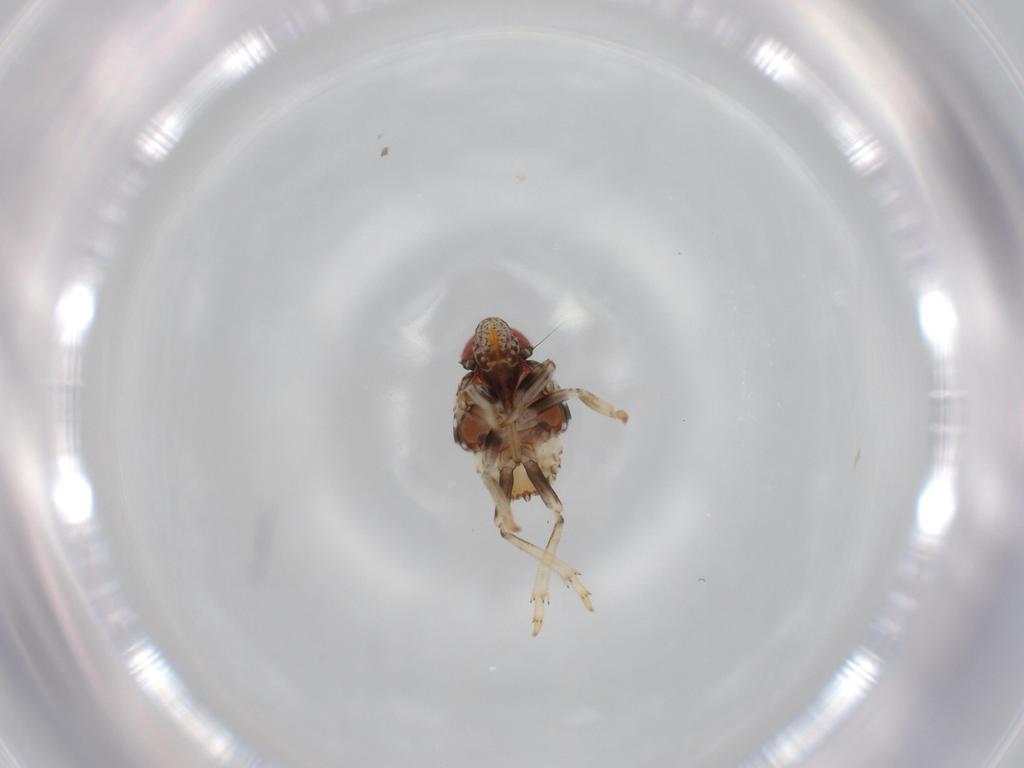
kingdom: Animalia
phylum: Arthropoda
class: Insecta
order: Hemiptera
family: Issidae
